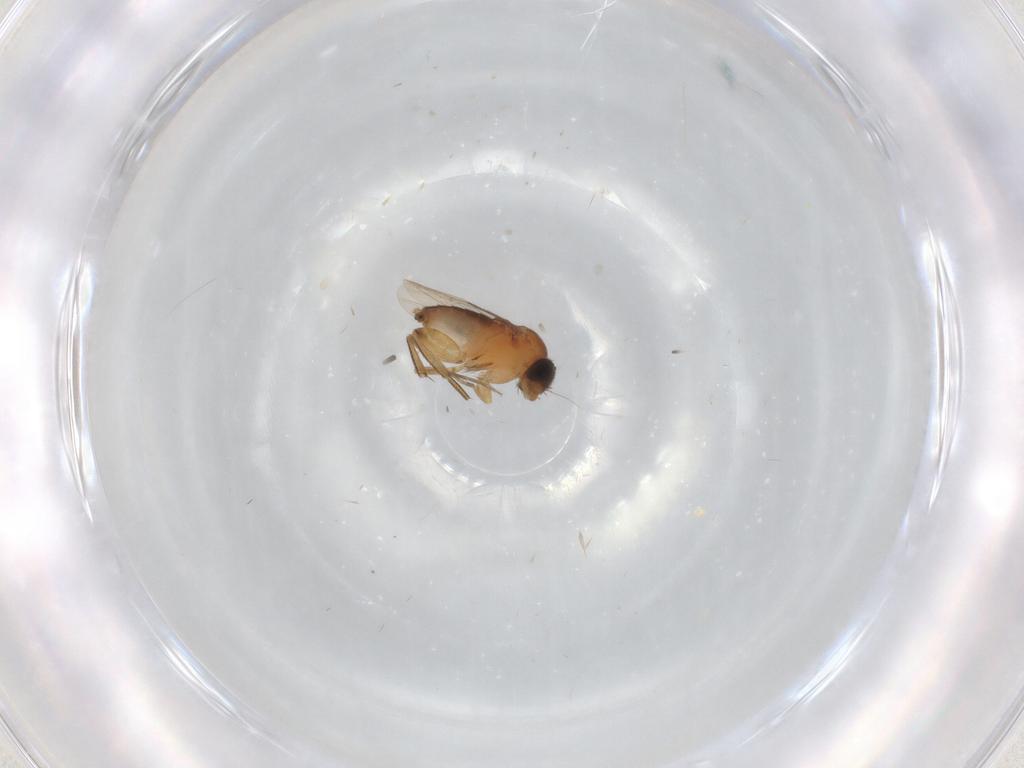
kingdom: Animalia
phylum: Arthropoda
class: Insecta
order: Diptera
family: Phoridae
